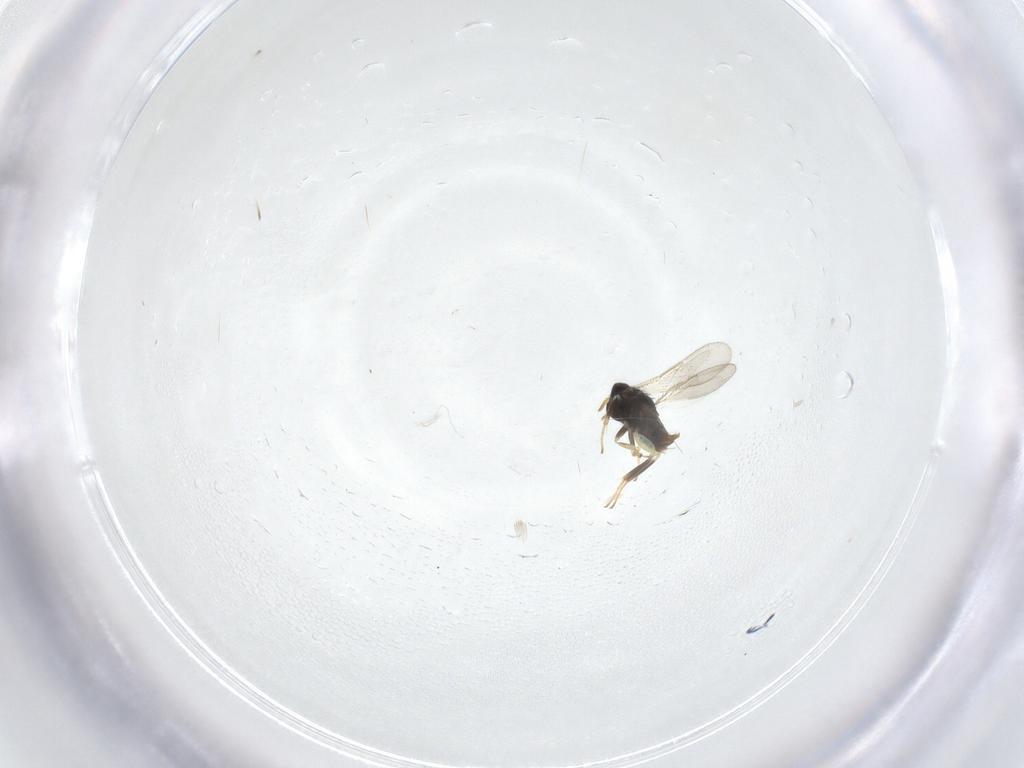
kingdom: Animalia
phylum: Arthropoda
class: Insecta
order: Hymenoptera
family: Aphelinidae
